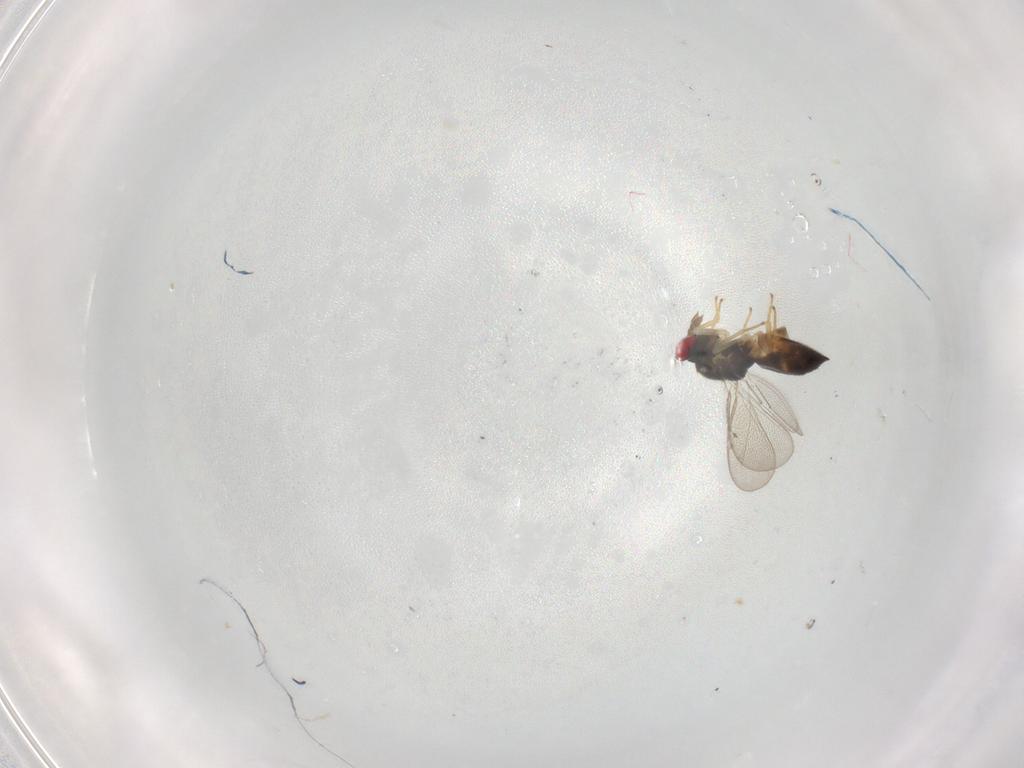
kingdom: Animalia
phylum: Arthropoda
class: Insecta
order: Hymenoptera
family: Eulophidae
